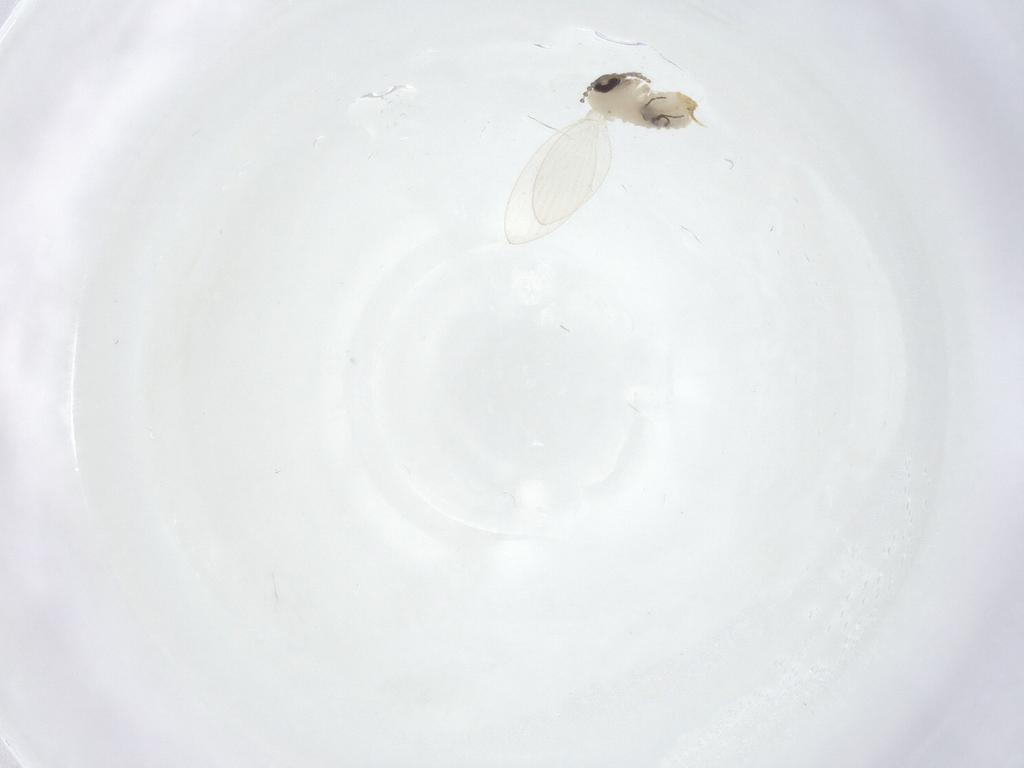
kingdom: Animalia
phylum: Arthropoda
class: Insecta
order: Diptera
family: Psychodidae
